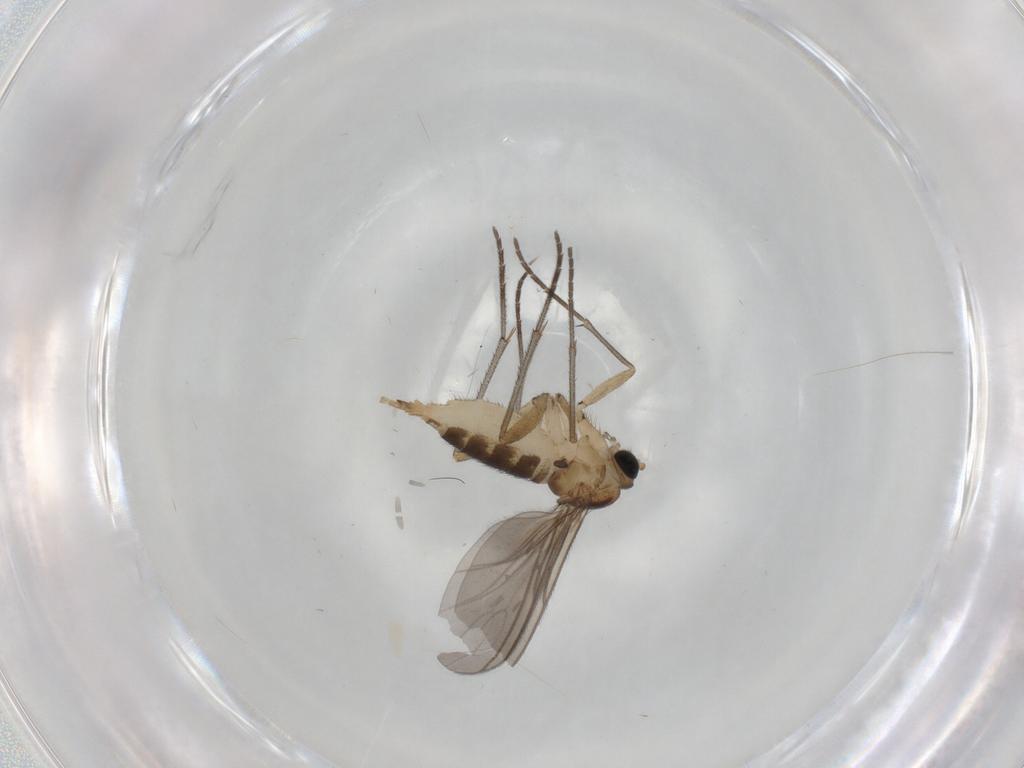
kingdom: Animalia
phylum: Arthropoda
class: Insecta
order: Diptera
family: Sciaridae
